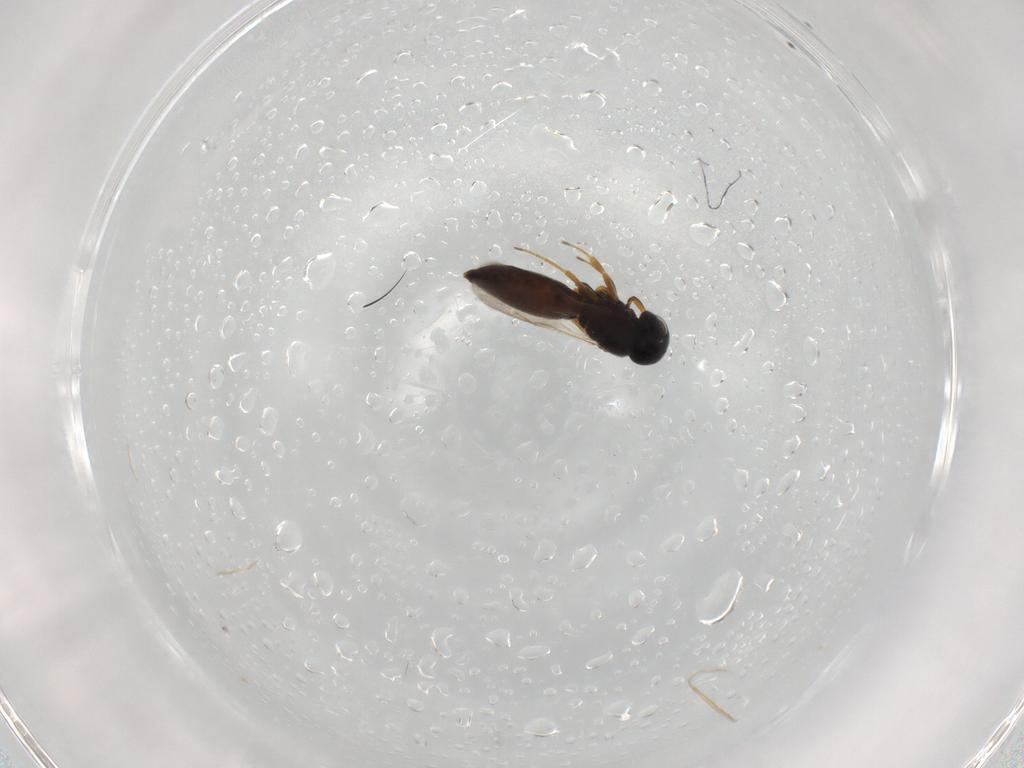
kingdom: Animalia
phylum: Arthropoda
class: Insecta
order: Hymenoptera
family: Scelionidae
